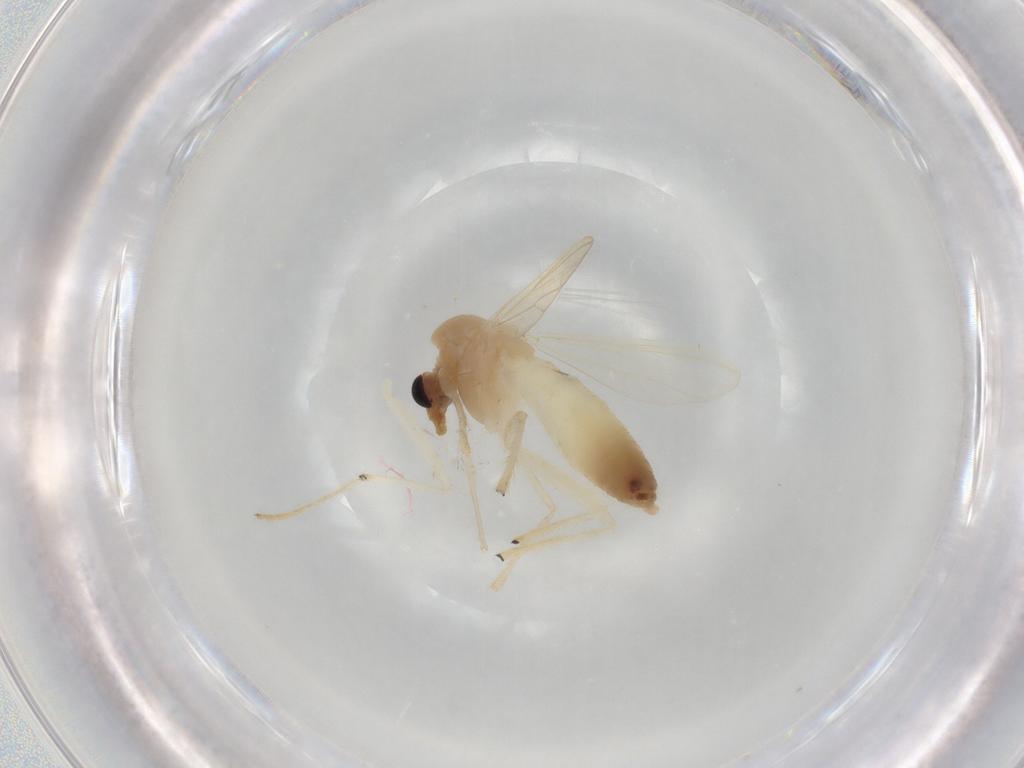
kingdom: Animalia
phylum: Arthropoda
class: Insecta
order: Diptera
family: Chironomidae
